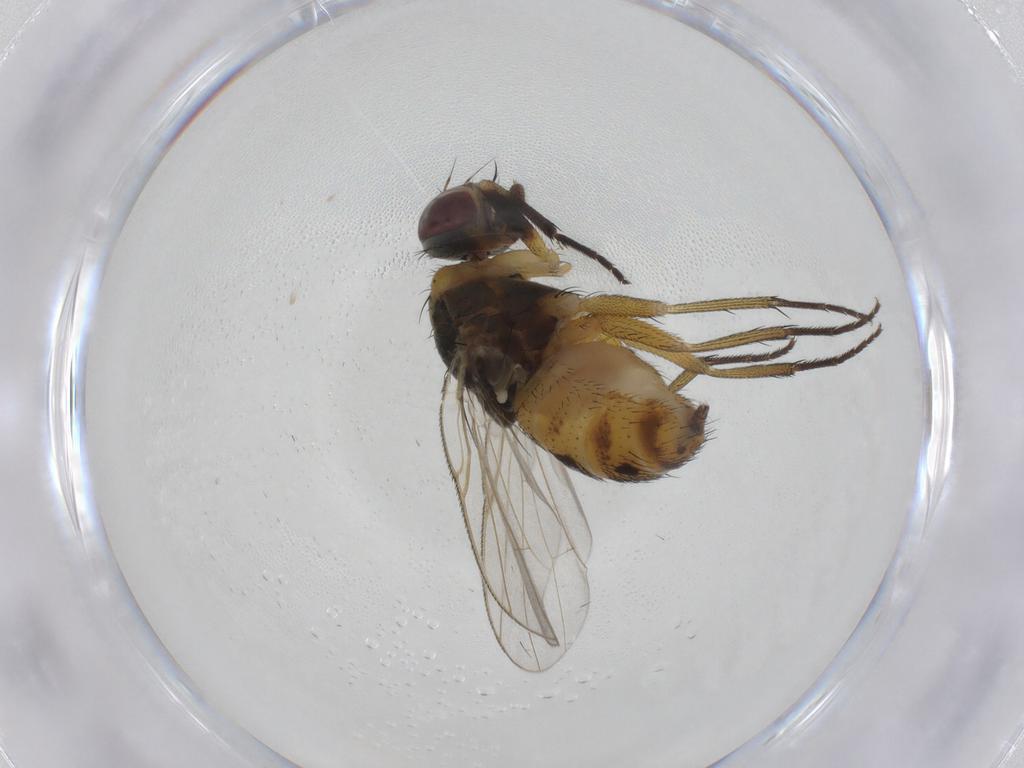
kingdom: Animalia
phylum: Arthropoda
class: Insecta
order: Diptera
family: Muscidae
